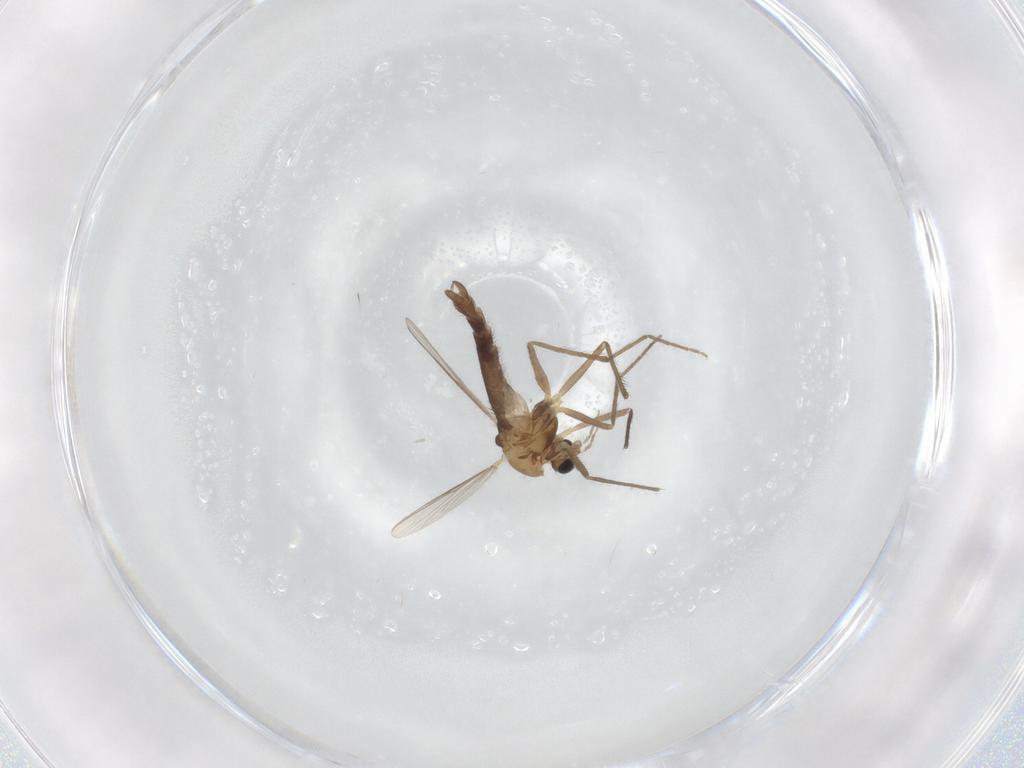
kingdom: Animalia
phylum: Arthropoda
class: Insecta
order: Diptera
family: Chironomidae
